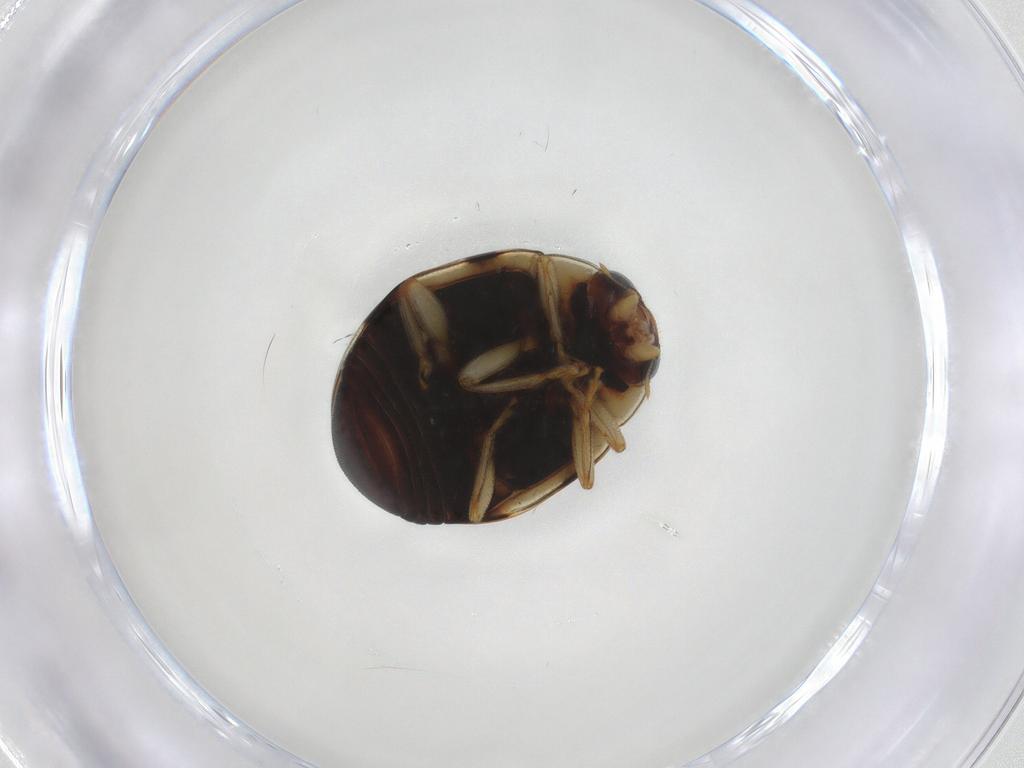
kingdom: Animalia
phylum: Arthropoda
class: Insecta
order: Coleoptera
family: Coccinellidae
